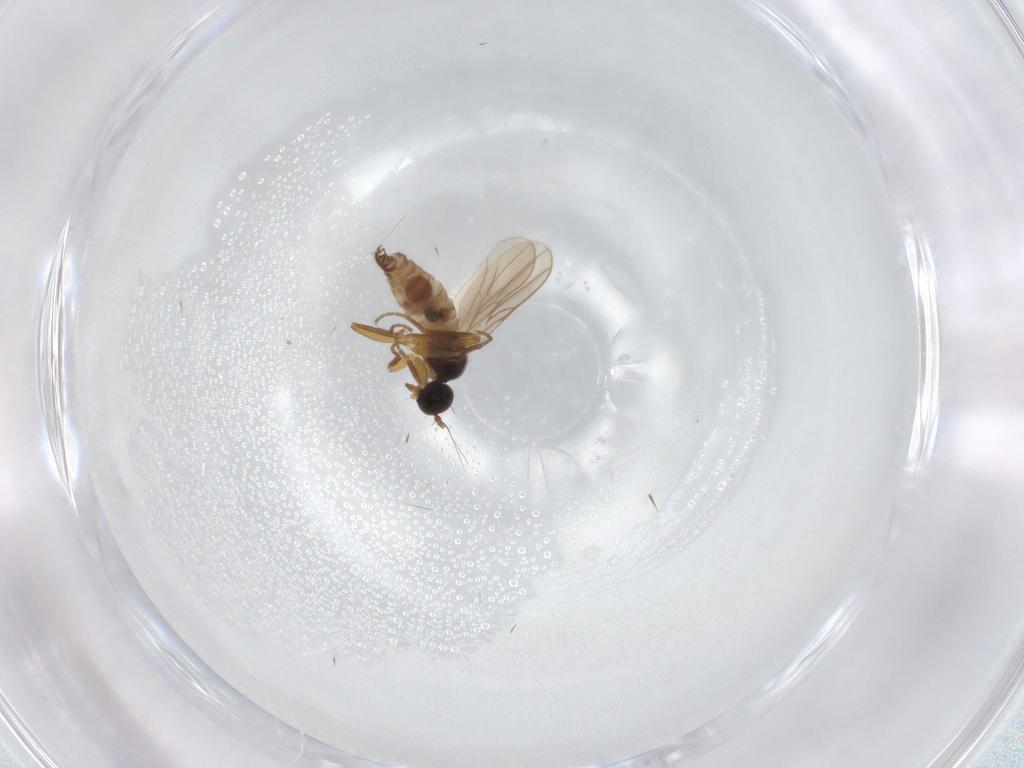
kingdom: Animalia
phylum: Arthropoda
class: Insecta
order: Diptera
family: Hybotidae
